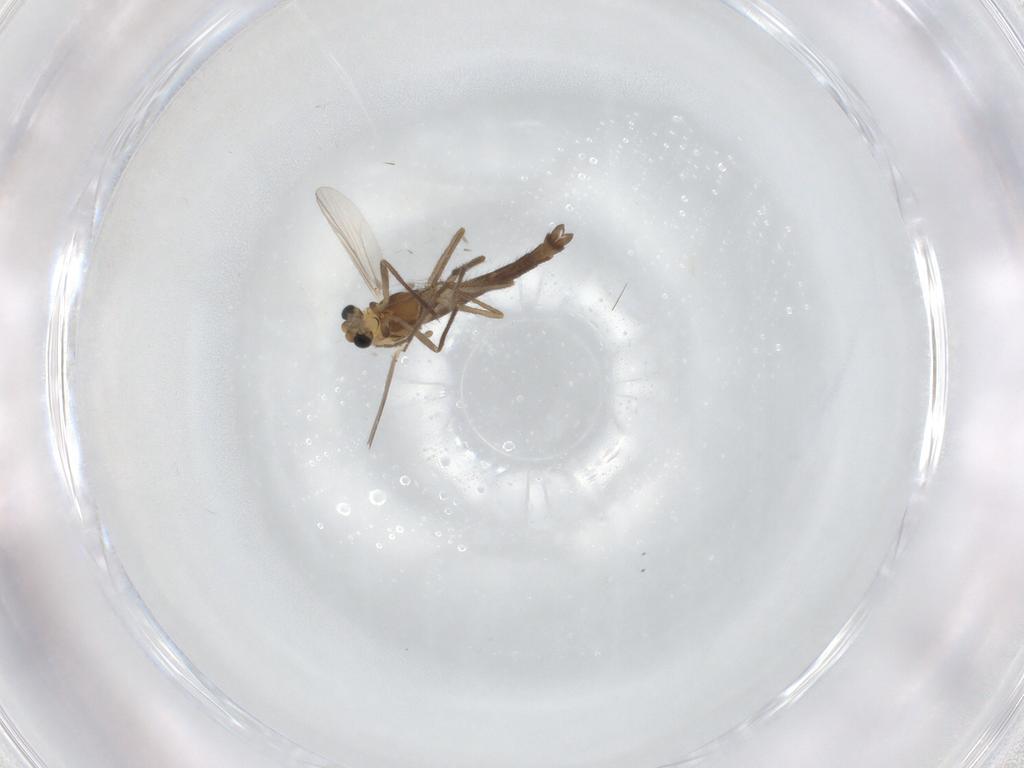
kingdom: Animalia
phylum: Arthropoda
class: Insecta
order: Diptera
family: Chironomidae
